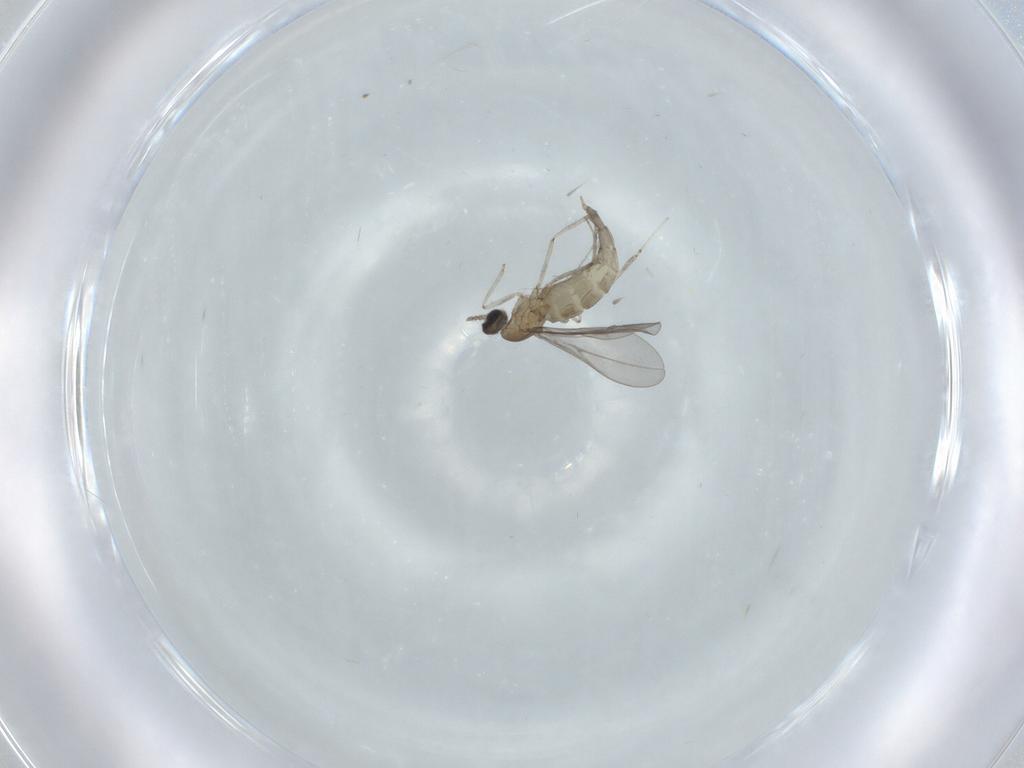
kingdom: Animalia
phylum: Arthropoda
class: Insecta
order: Diptera
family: Cecidomyiidae
